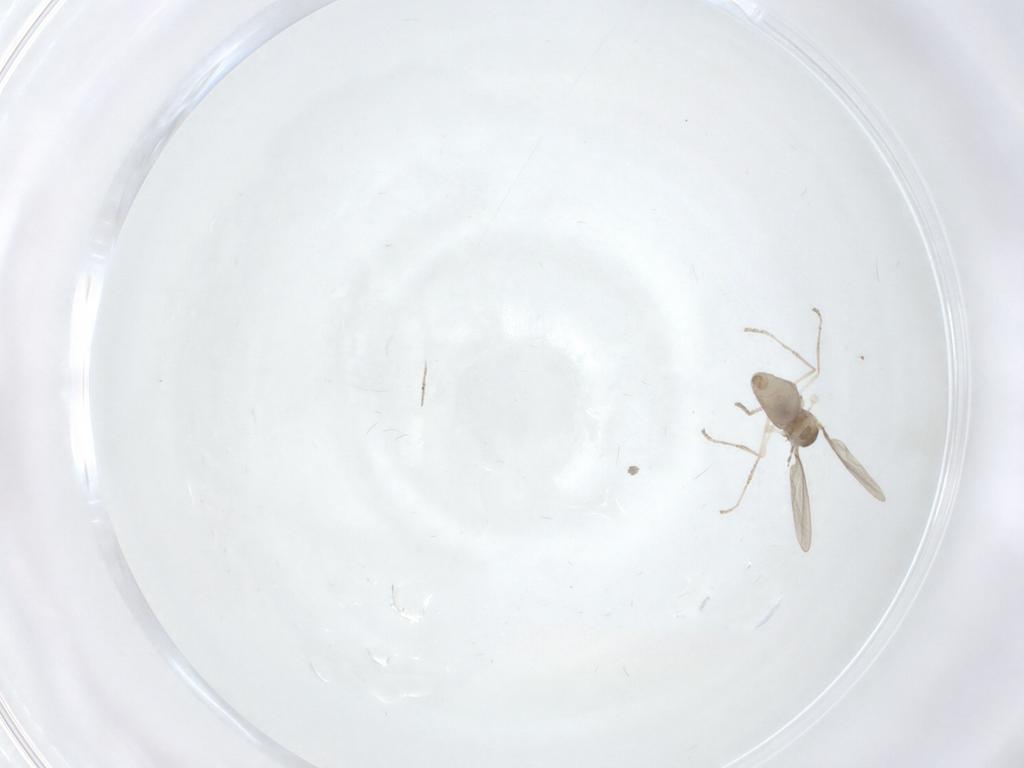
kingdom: Animalia
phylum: Arthropoda
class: Insecta
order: Diptera
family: Cecidomyiidae
